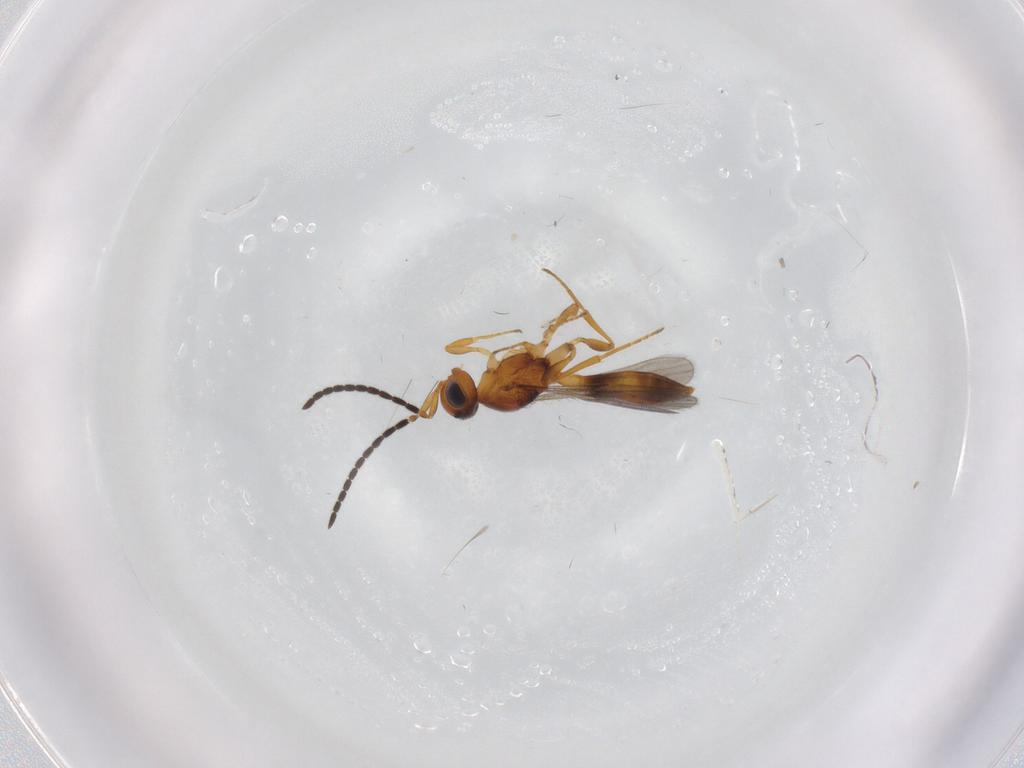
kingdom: Animalia
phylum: Arthropoda
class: Insecta
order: Hymenoptera
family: Scelionidae
